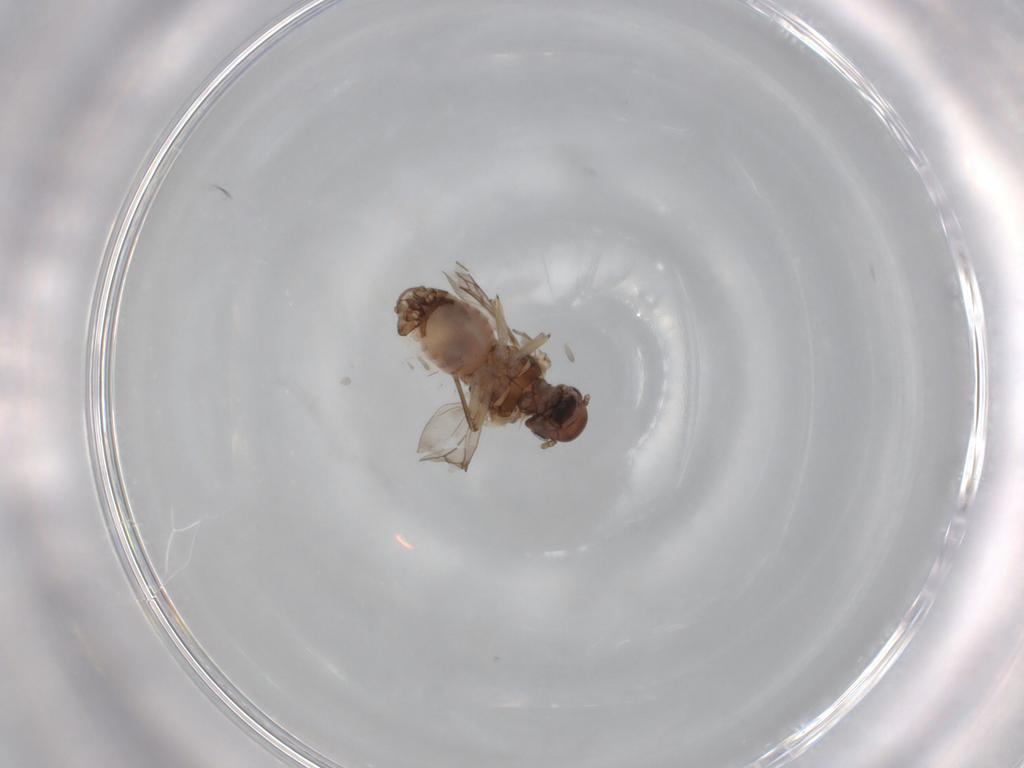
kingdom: Animalia
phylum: Arthropoda
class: Insecta
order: Psocodea
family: Peripsocidae
